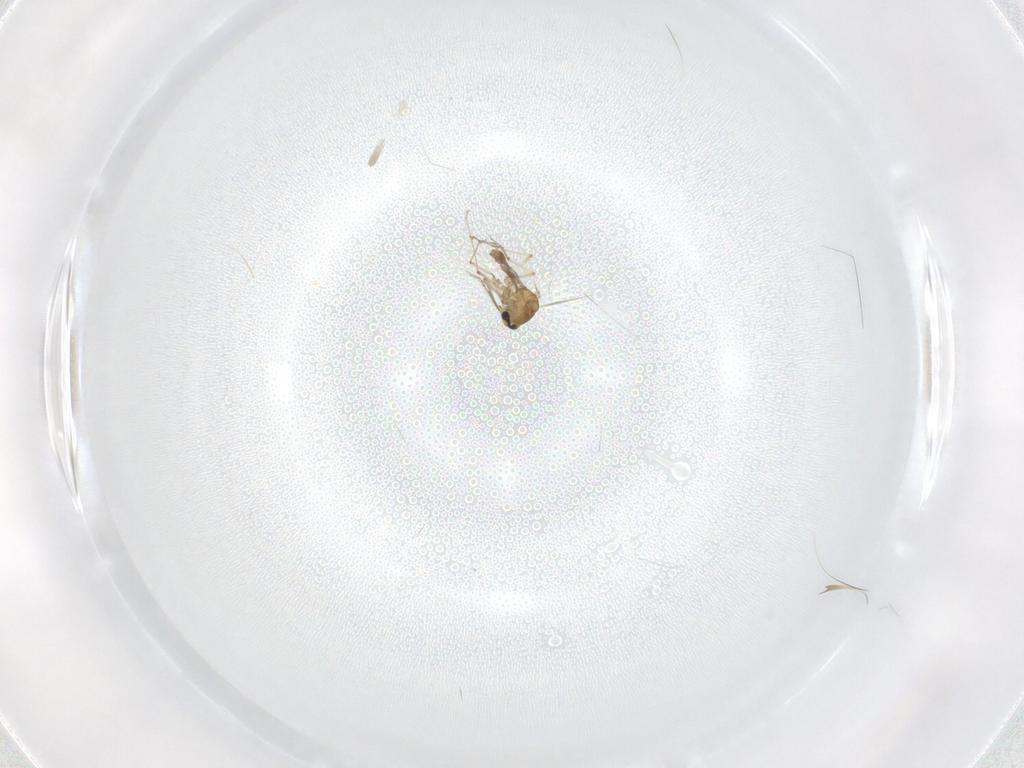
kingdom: Animalia
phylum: Arthropoda
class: Insecta
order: Diptera
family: Ceratopogonidae
